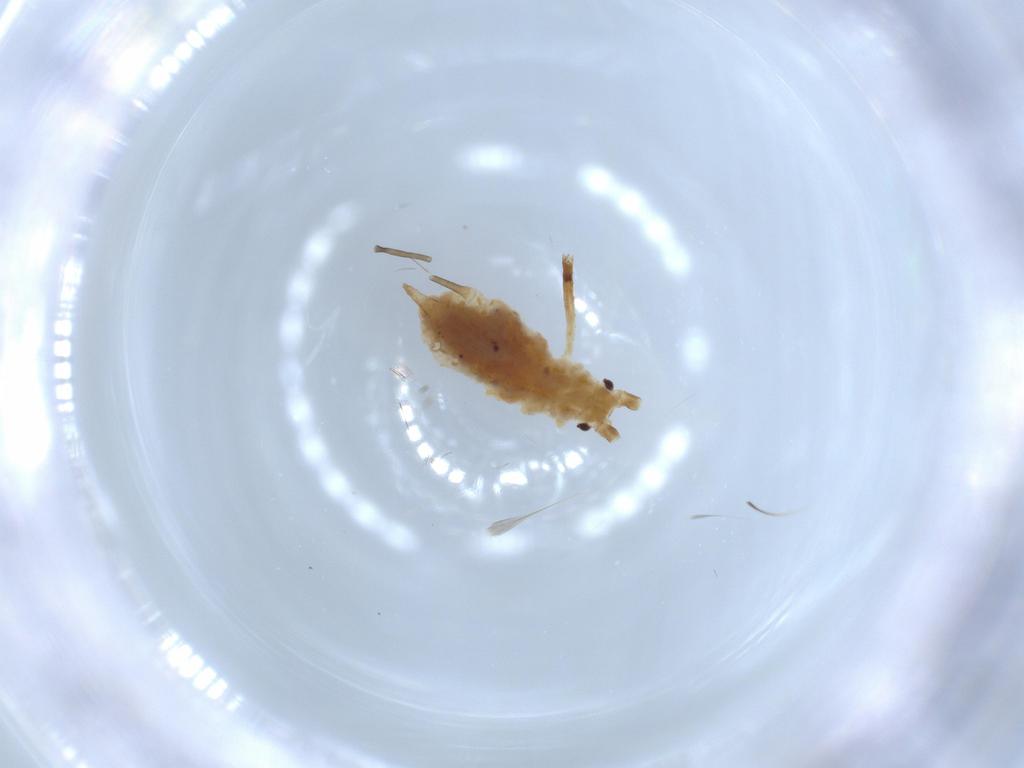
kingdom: Animalia
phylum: Arthropoda
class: Insecta
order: Hemiptera
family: Aphididae
